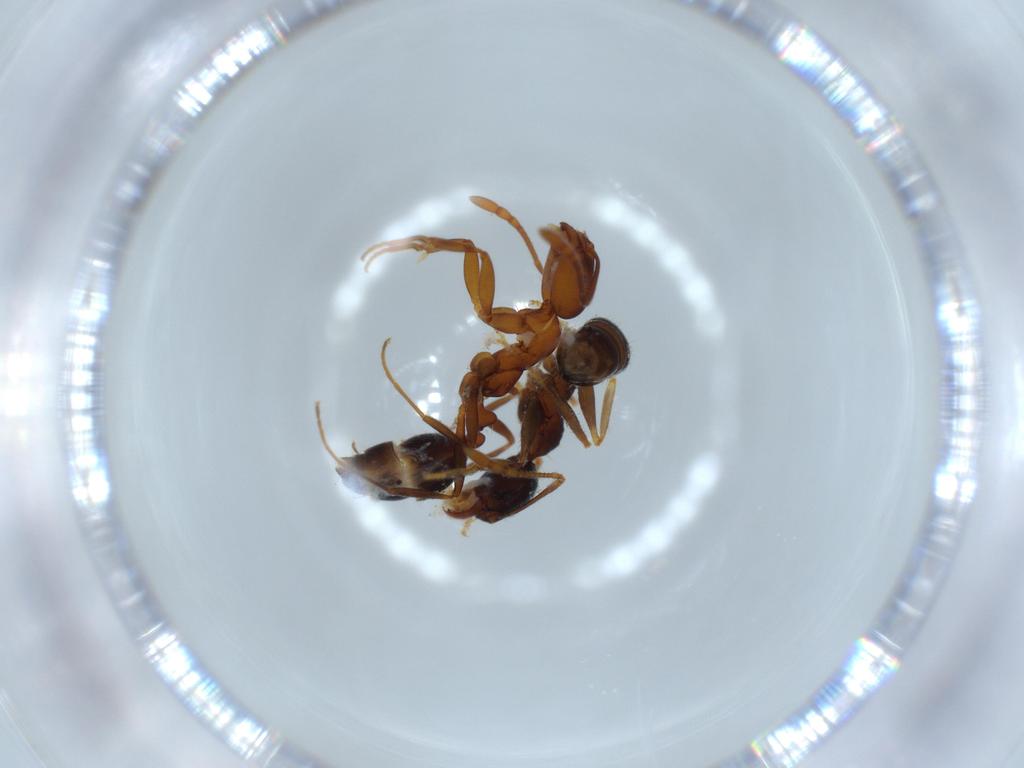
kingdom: Animalia
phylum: Arthropoda
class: Insecta
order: Hymenoptera
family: Formicidae
